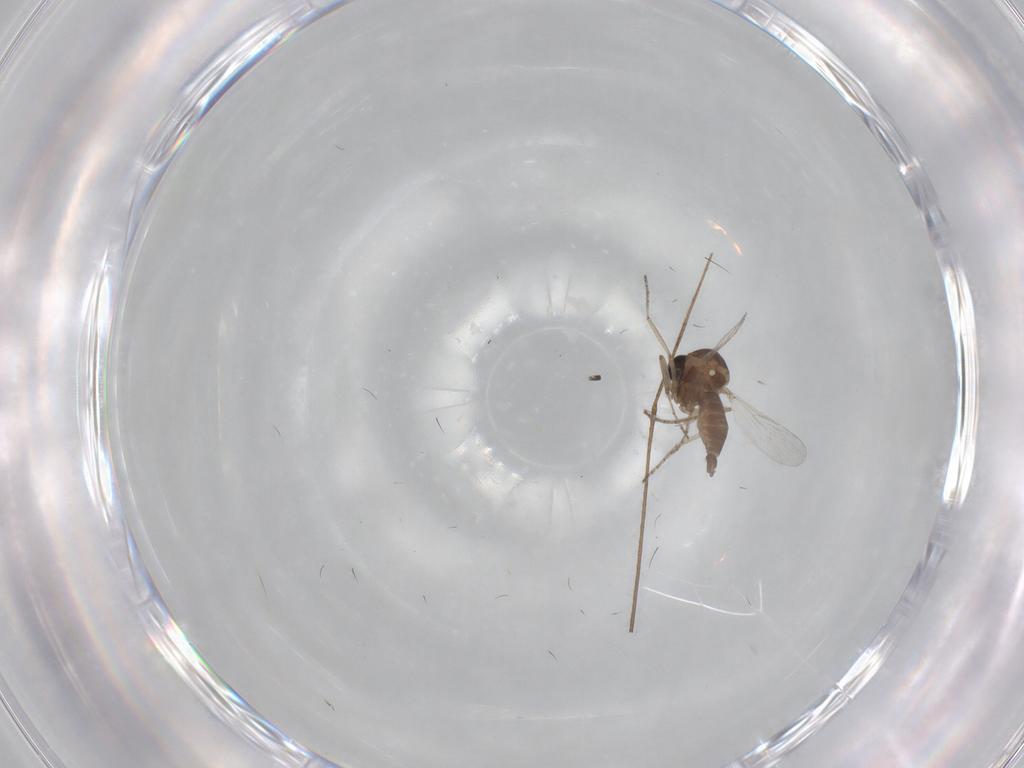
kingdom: Animalia
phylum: Arthropoda
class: Insecta
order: Diptera
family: Limoniidae
